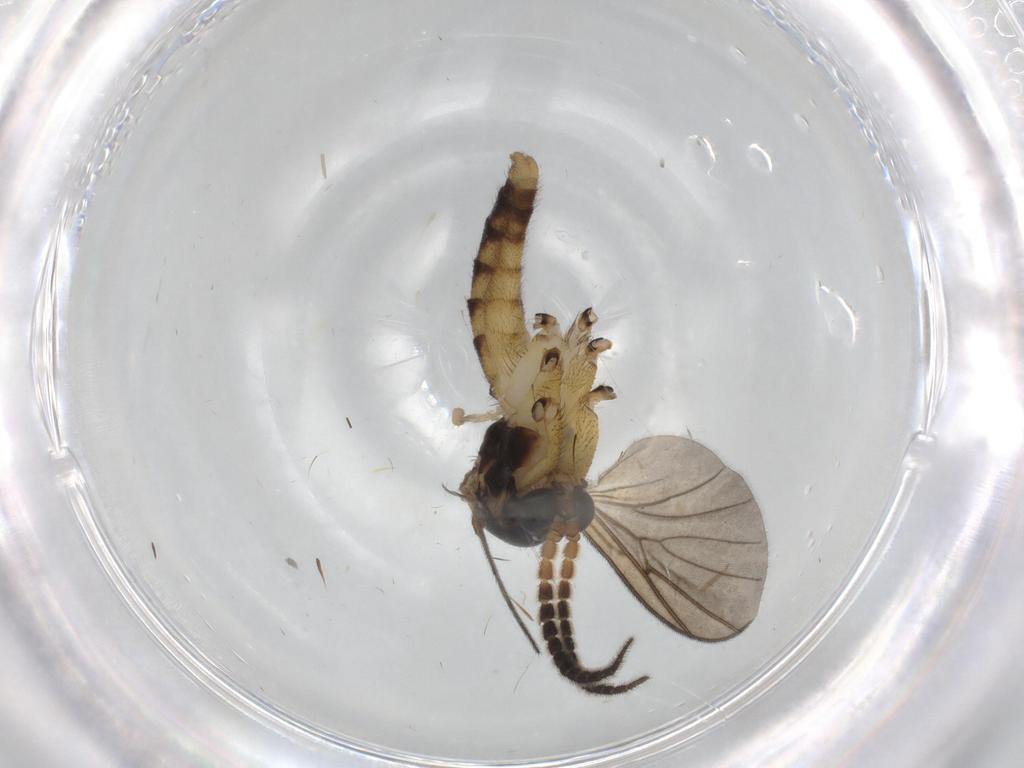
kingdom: Animalia
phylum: Arthropoda
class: Insecta
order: Diptera
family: Sciaridae
